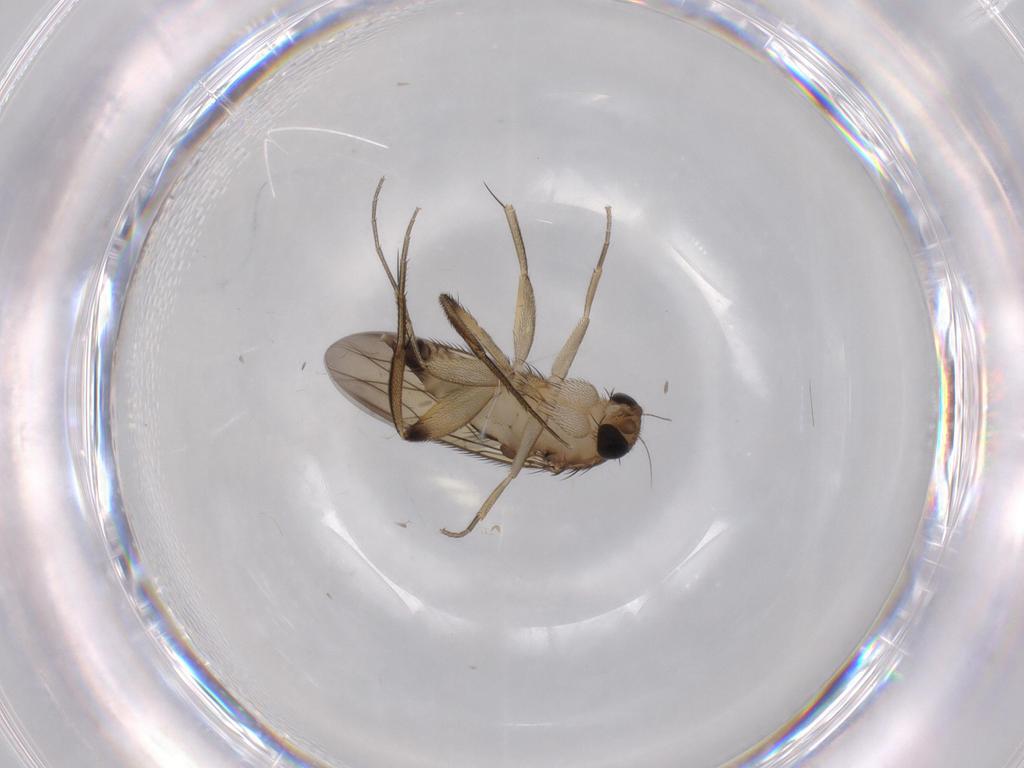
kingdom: Animalia
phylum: Arthropoda
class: Insecta
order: Diptera
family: Phoridae
